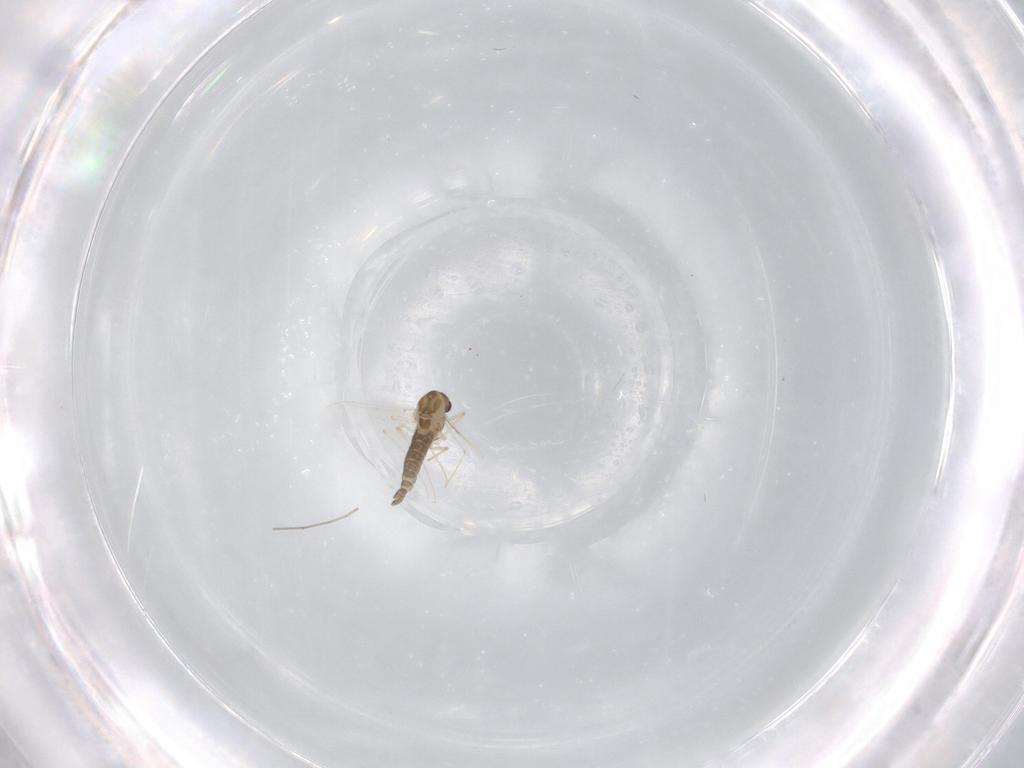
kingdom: Animalia
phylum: Arthropoda
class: Insecta
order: Diptera
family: Chironomidae
